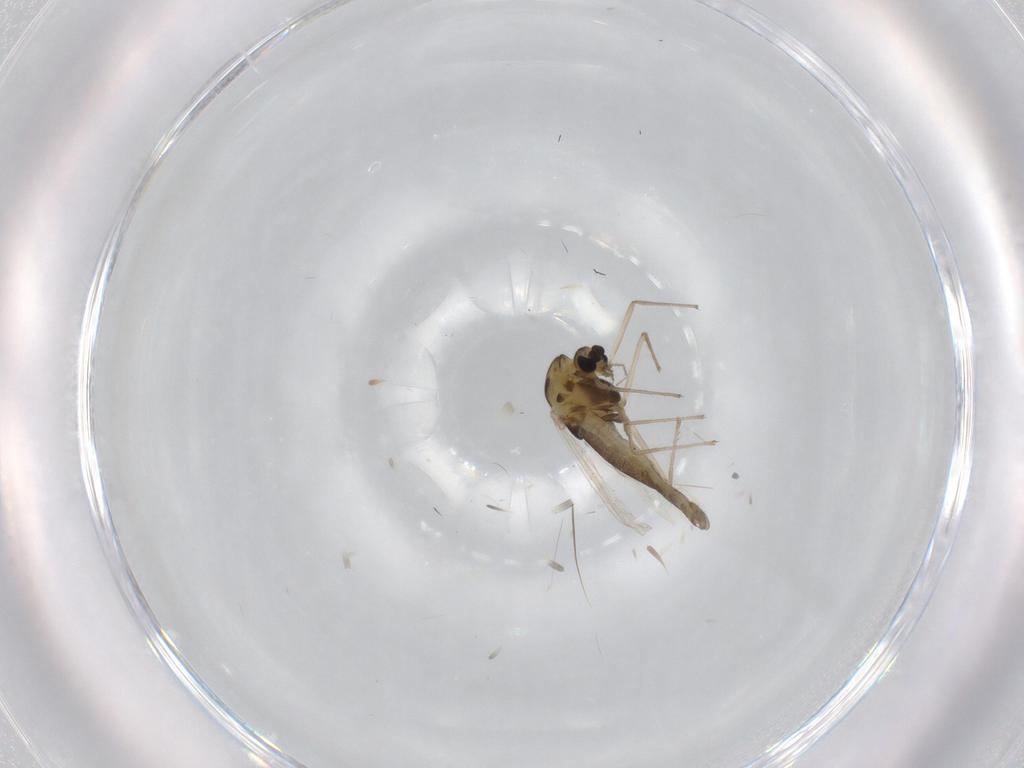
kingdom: Animalia
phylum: Arthropoda
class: Insecta
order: Diptera
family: Chironomidae
